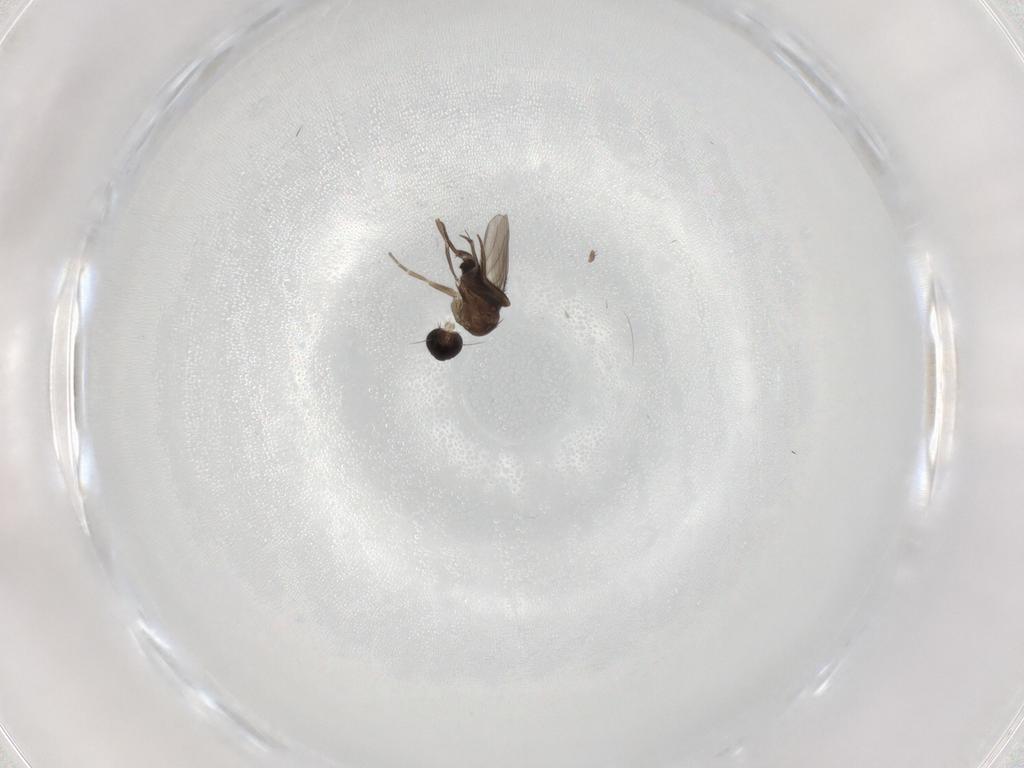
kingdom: Animalia
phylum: Arthropoda
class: Insecta
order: Diptera
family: Phoridae
